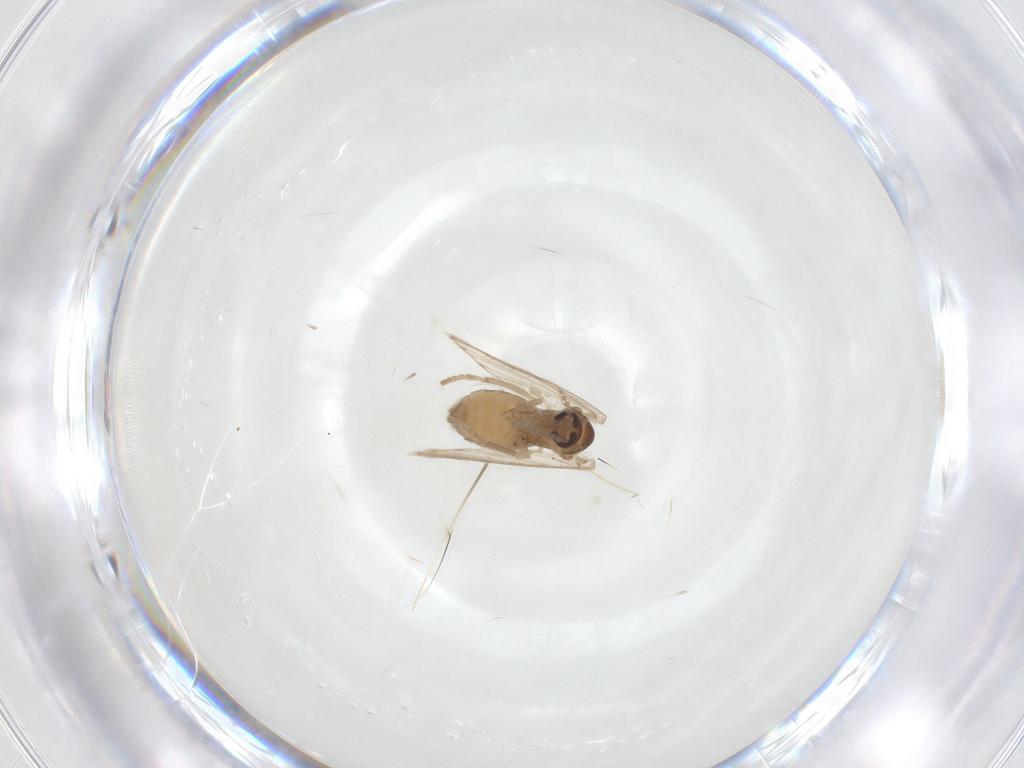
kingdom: Animalia
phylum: Arthropoda
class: Insecta
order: Diptera
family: Psychodidae
